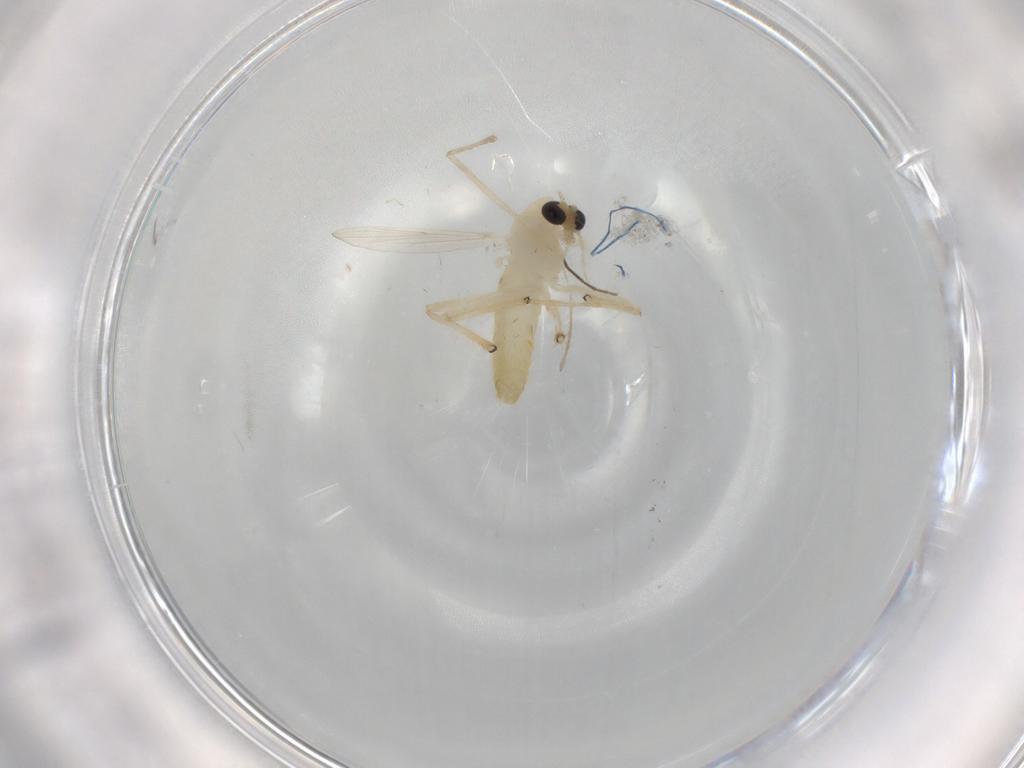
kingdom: Animalia
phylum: Arthropoda
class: Insecta
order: Diptera
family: Chironomidae
